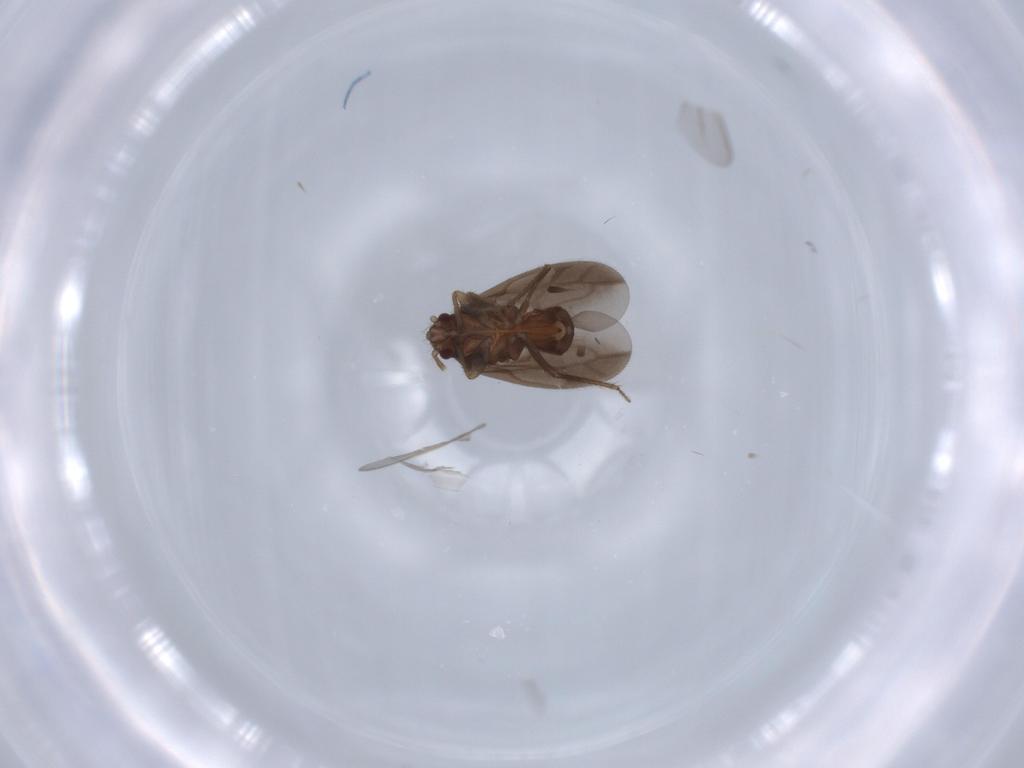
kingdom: Animalia
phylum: Arthropoda
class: Insecta
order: Hemiptera
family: Ceratocombidae
